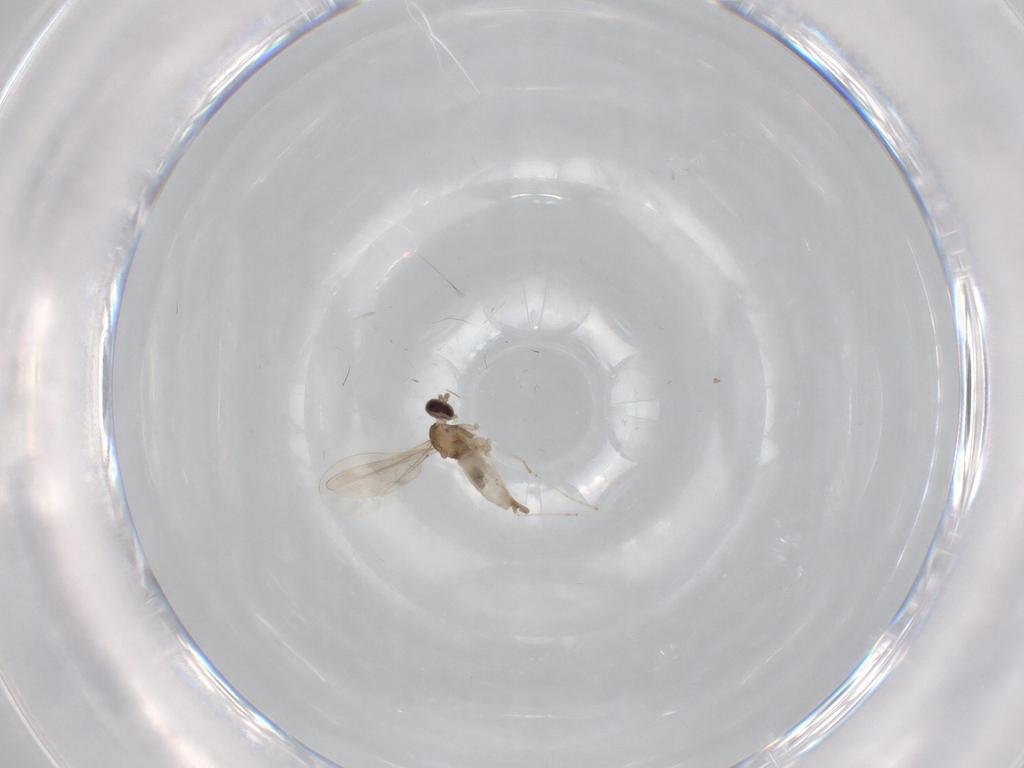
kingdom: Animalia
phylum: Arthropoda
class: Insecta
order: Diptera
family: Cecidomyiidae
